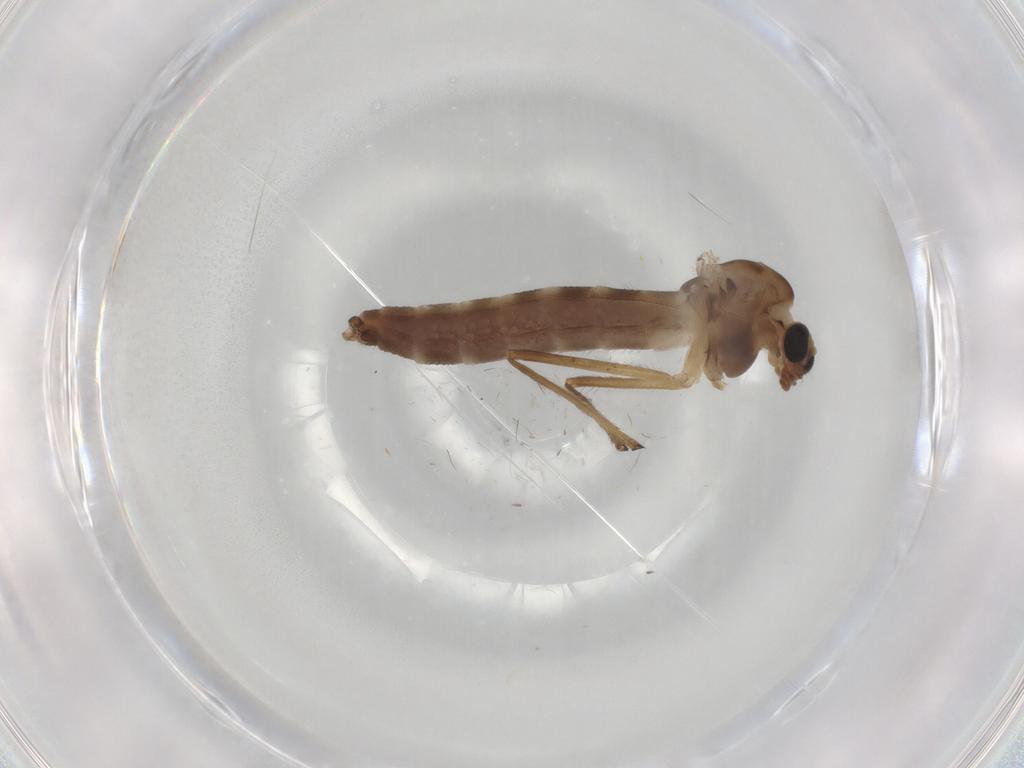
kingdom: Animalia
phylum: Arthropoda
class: Insecta
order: Diptera
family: Chironomidae
